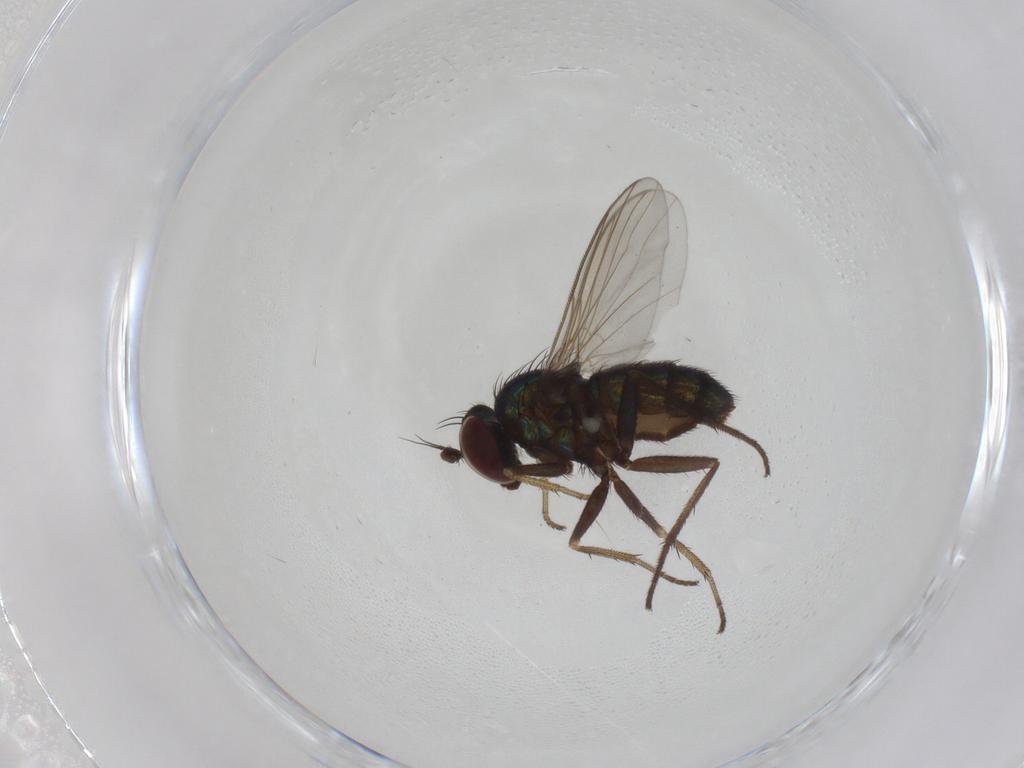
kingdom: Animalia
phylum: Arthropoda
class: Insecta
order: Diptera
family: Dolichopodidae
